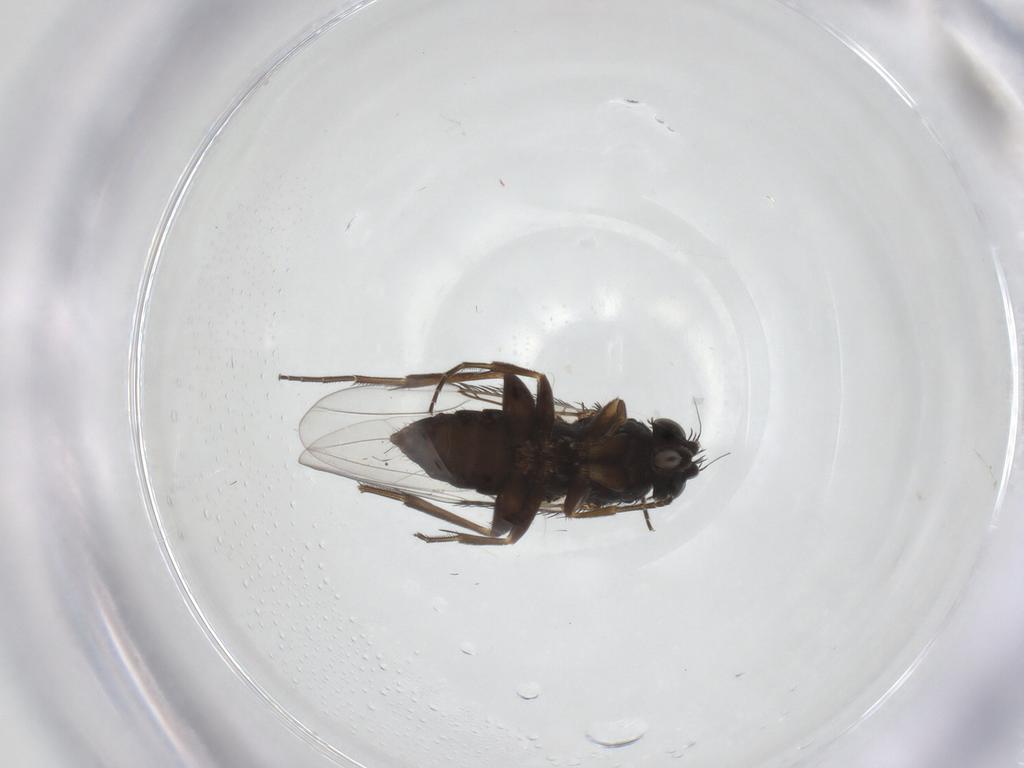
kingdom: Animalia
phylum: Arthropoda
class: Insecta
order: Diptera
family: Phoridae
